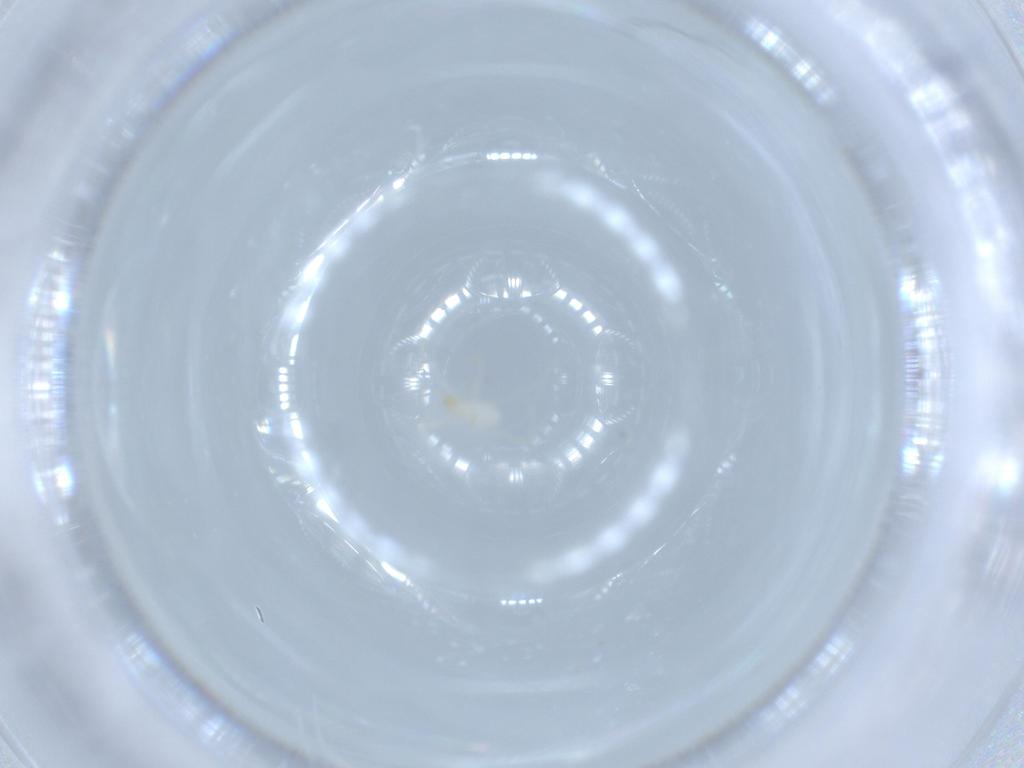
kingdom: Animalia
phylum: Arthropoda
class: Insecta
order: Lepidoptera
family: Cosmopterigidae
